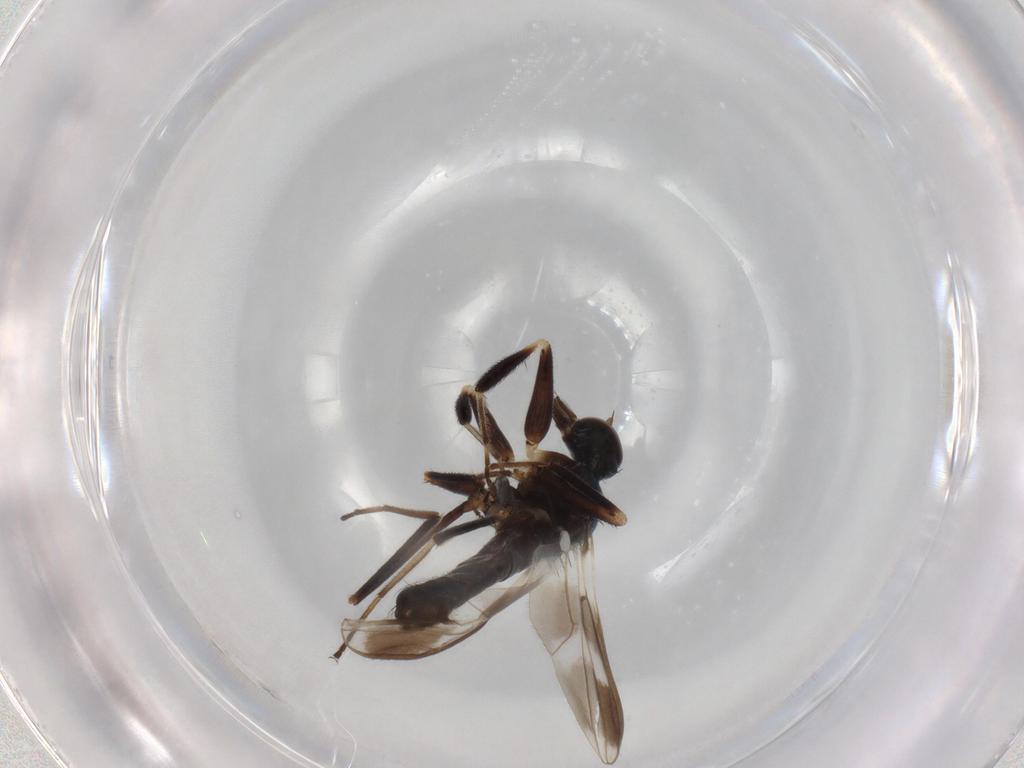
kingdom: Animalia
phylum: Arthropoda
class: Insecta
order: Diptera
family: Hybotidae
